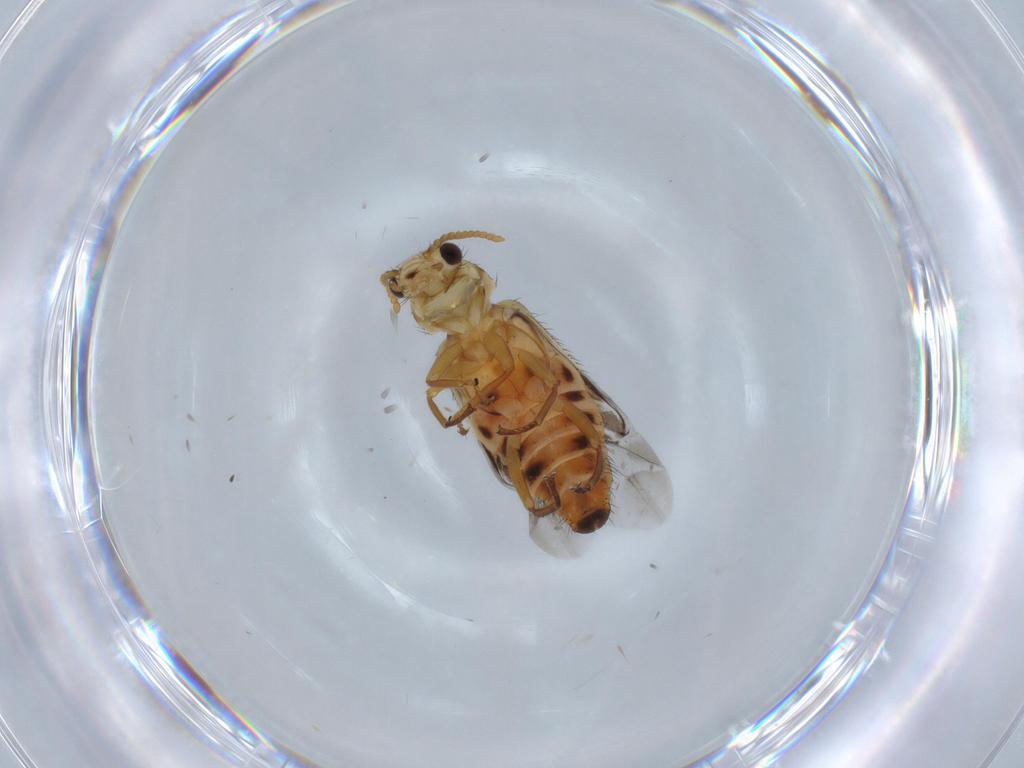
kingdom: Animalia
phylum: Arthropoda
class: Insecta
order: Coleoptera
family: Melyridae
